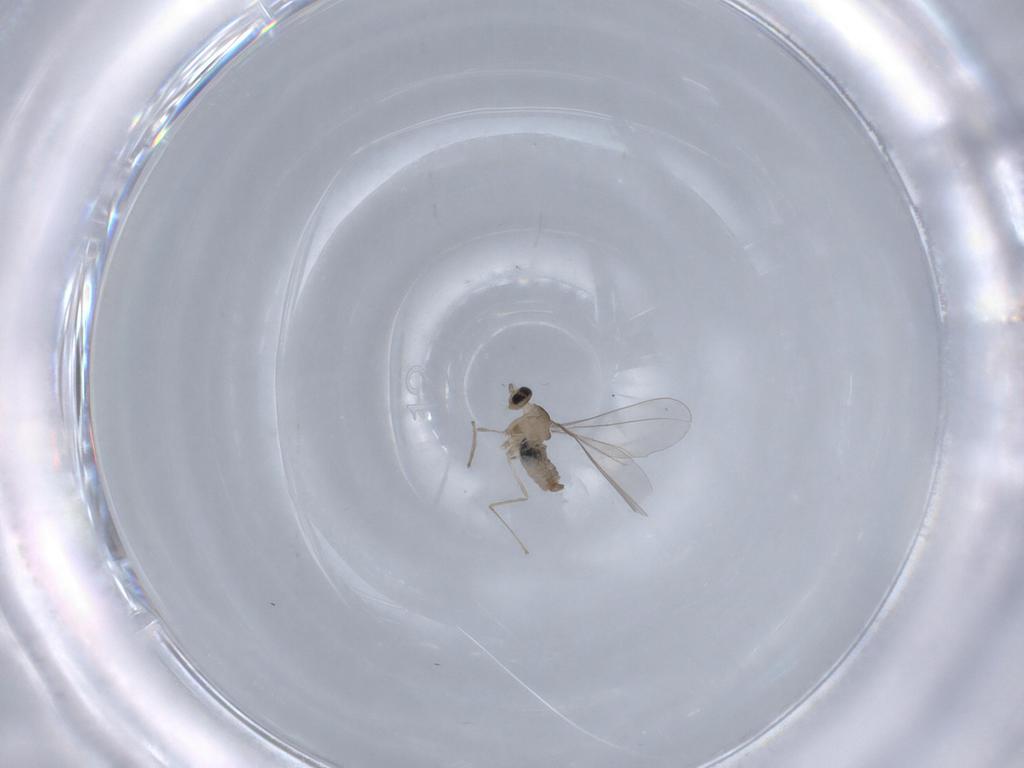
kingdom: Animalia
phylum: Arthropoda
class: Insecta
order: Diptera
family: Cecidomyiidae
